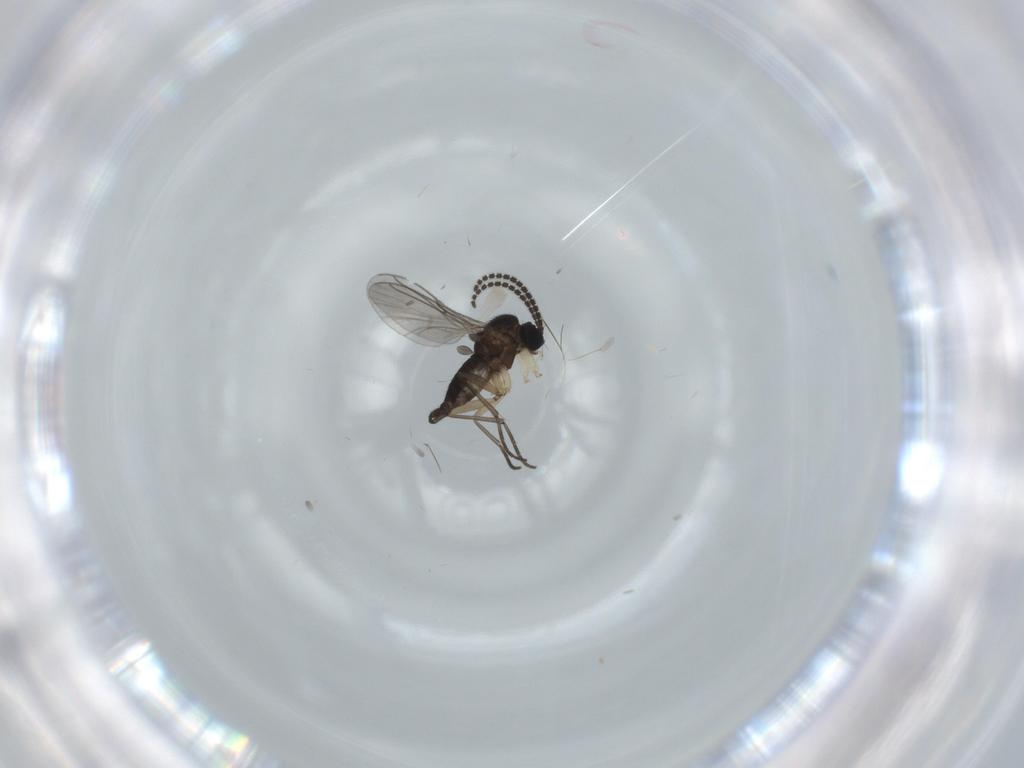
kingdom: Animalia
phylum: Arthropoda
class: Insecta
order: Diptera
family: Sciaridae
